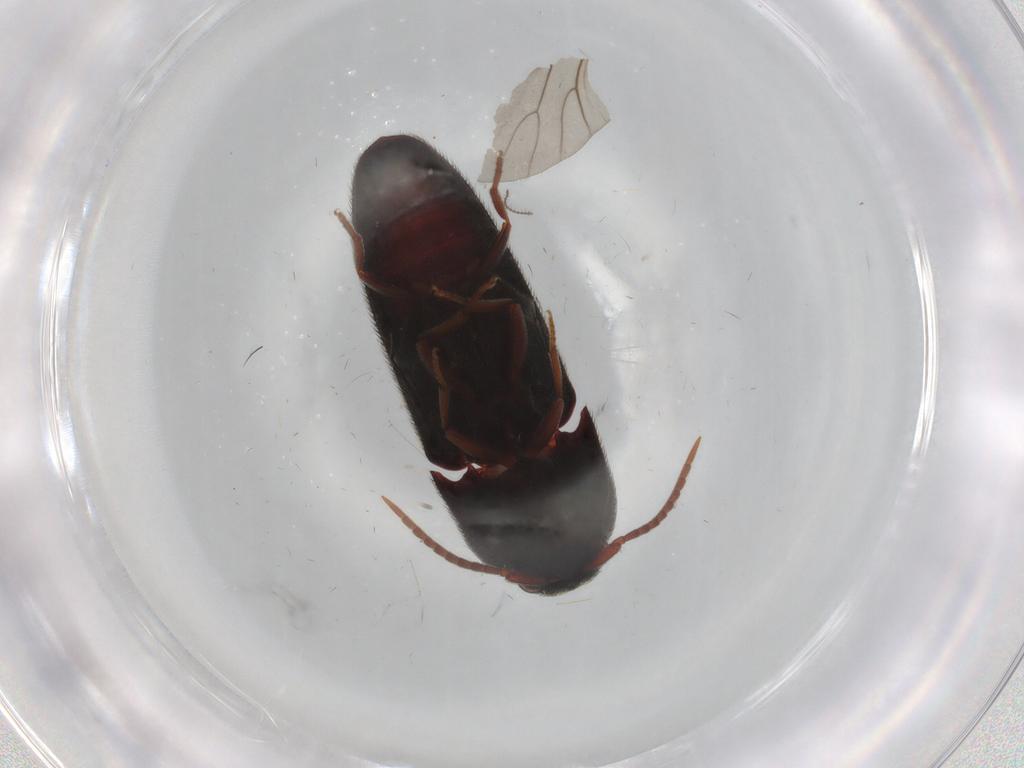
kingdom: Animalia
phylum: Arthropoda
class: Insecta
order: Coleoptera
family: Eucnemidae
